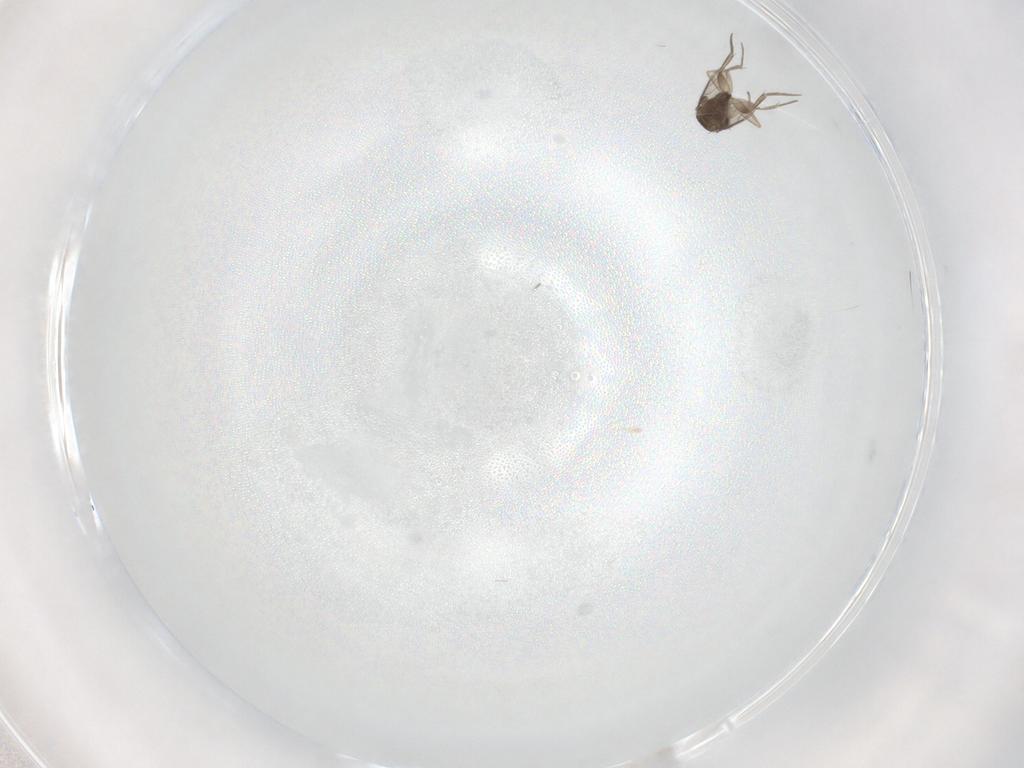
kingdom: Animalia
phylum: Arthropoda
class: Insecta
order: Diptera
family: Phoridae
